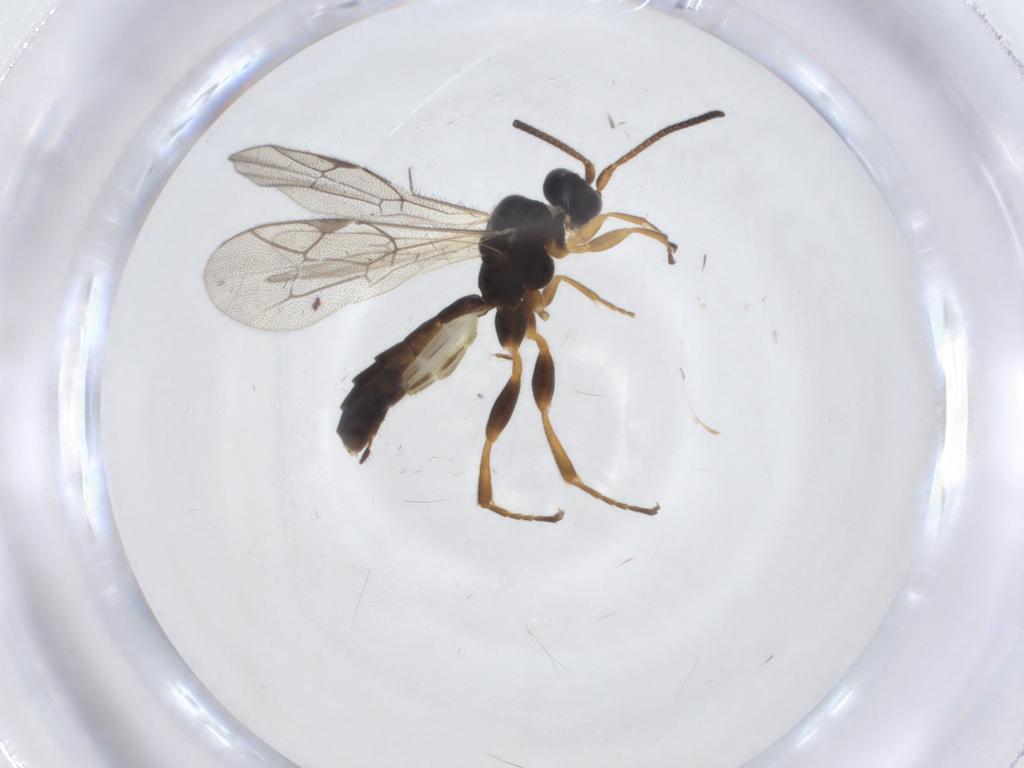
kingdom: Animalia
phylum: Arthropoda
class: Insecta
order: Hymenoptera
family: Ichneumonidae
